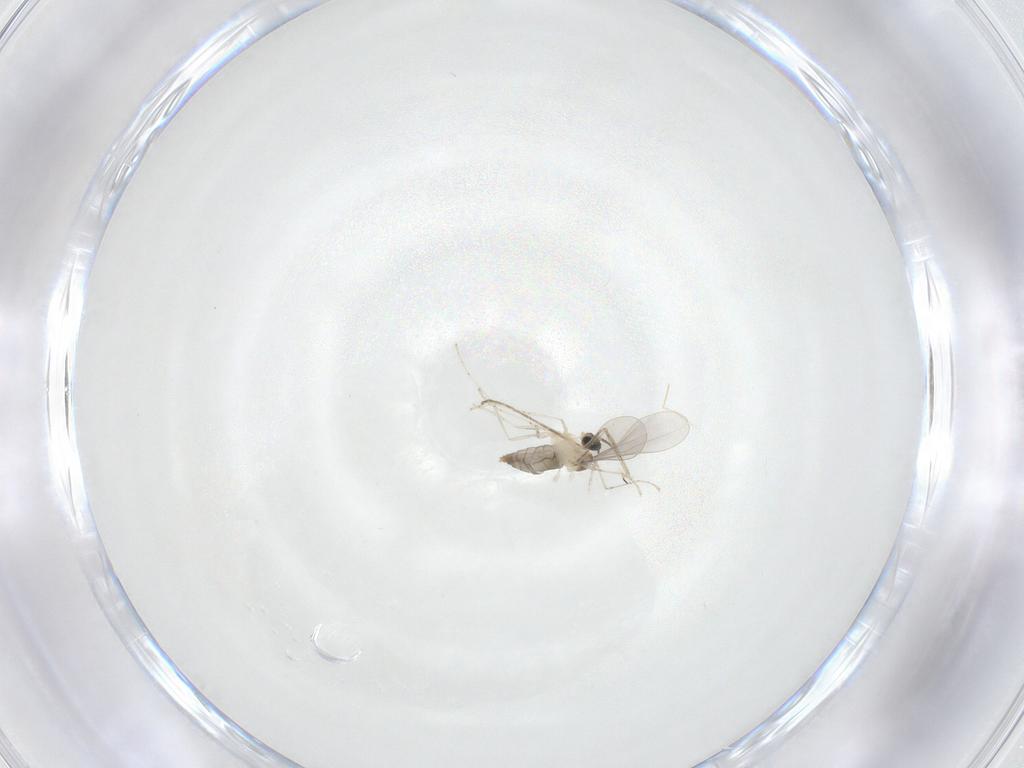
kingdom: Animalia
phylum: Arthropoda
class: Insecta
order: Diptera
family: Cecidomyiidae
